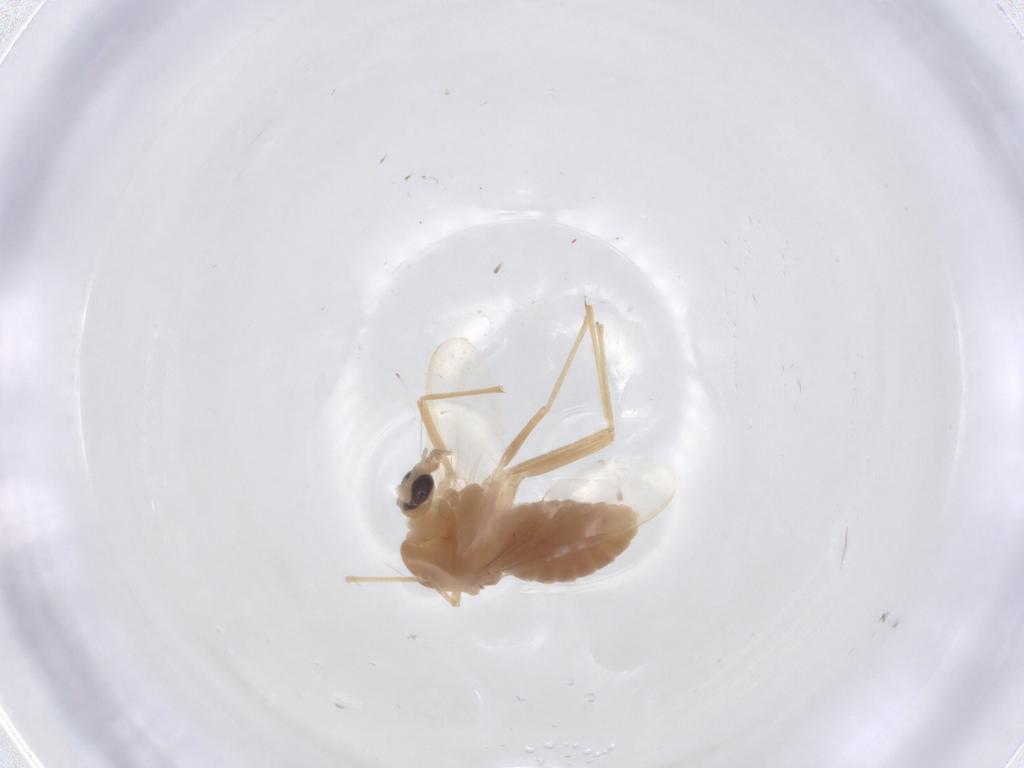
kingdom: Animalia
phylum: Arthropoda
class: Insecta
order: Diptera
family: Chironomidae
